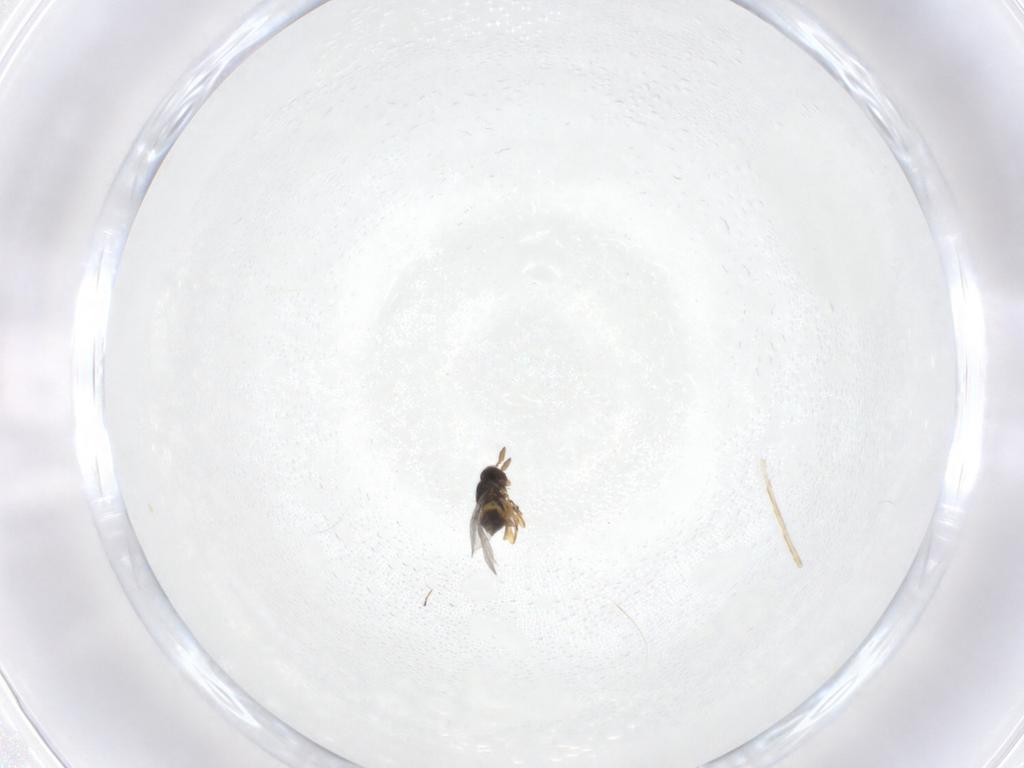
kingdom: Animalia
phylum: Arthropoda
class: Insecta
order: Hymenoptera
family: Eulophidae
